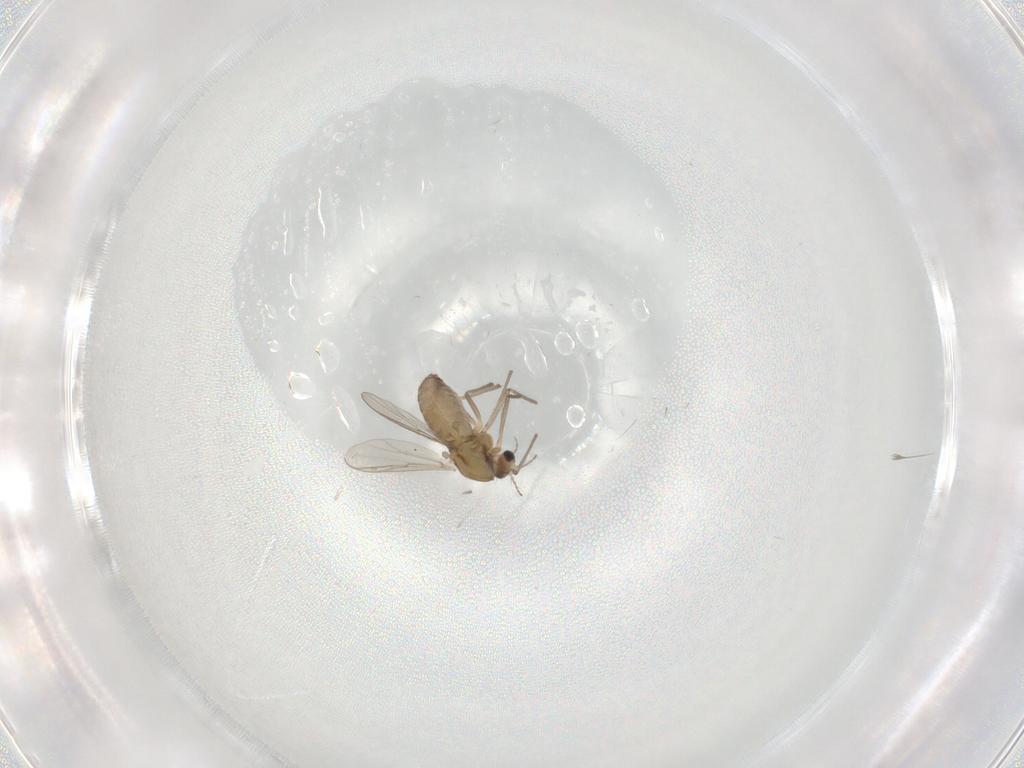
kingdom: Animalia
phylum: Arthropoda
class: Insecta
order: Diptera
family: Chironomidae
